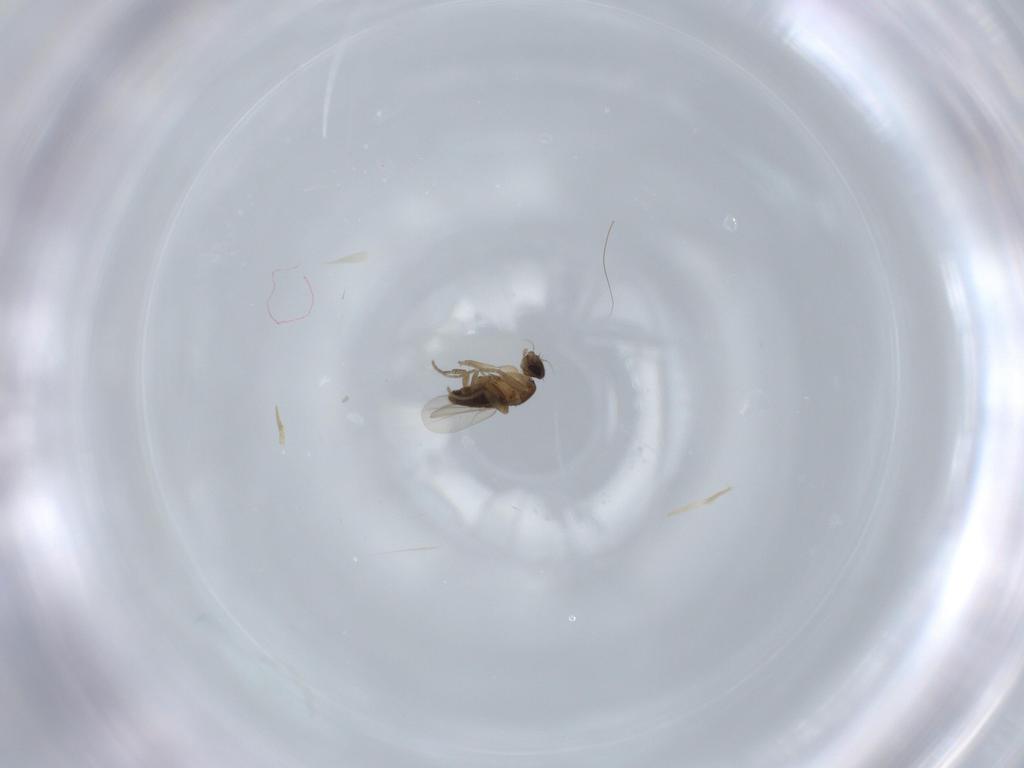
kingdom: Animalia
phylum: Arthropoda
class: Insecta
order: Diptera
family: Phoridae
